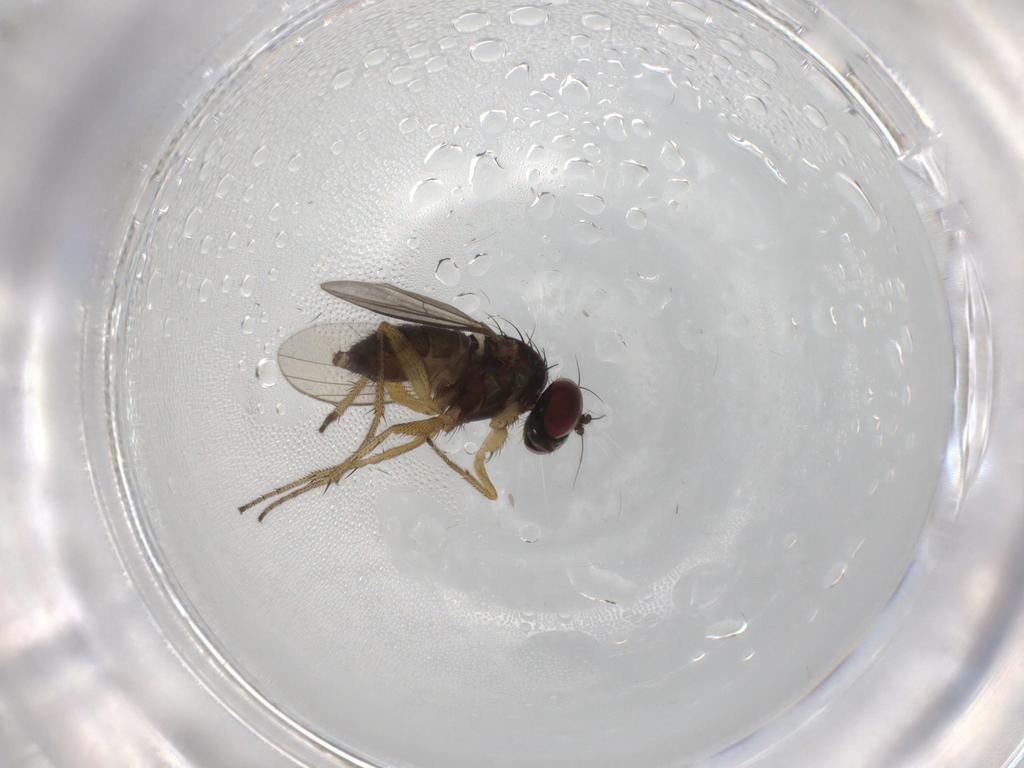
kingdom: Animalia
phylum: Arthropoda
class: Insecta
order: Diptera
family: Dolichopodidae
